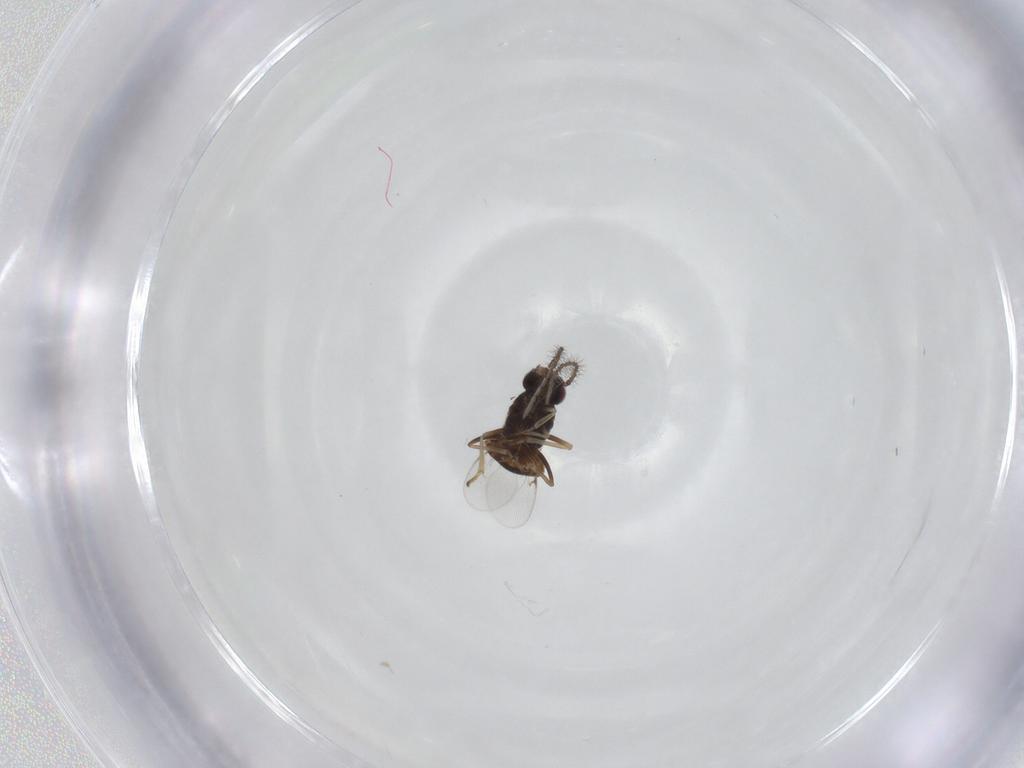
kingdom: Animalia
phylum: Arthropoda
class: Insecta
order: Hymenoptera
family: Encyrtidae
